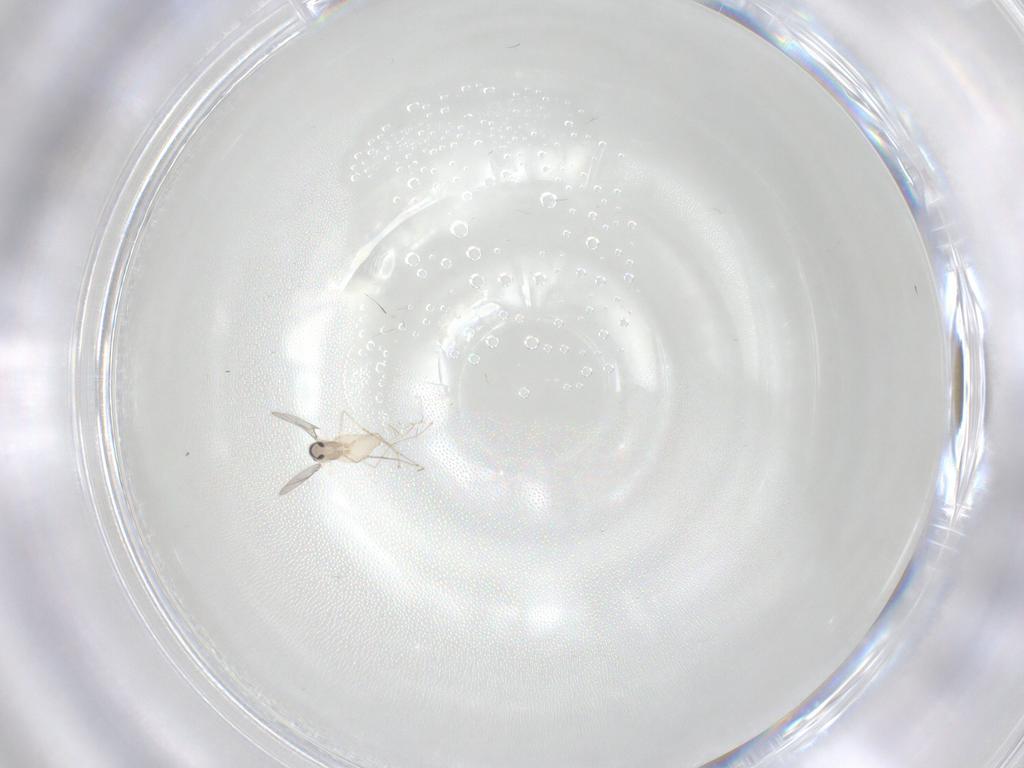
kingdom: Animalia
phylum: Arthropoda
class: Insecta
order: Diptera
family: Cecidomyiidae
